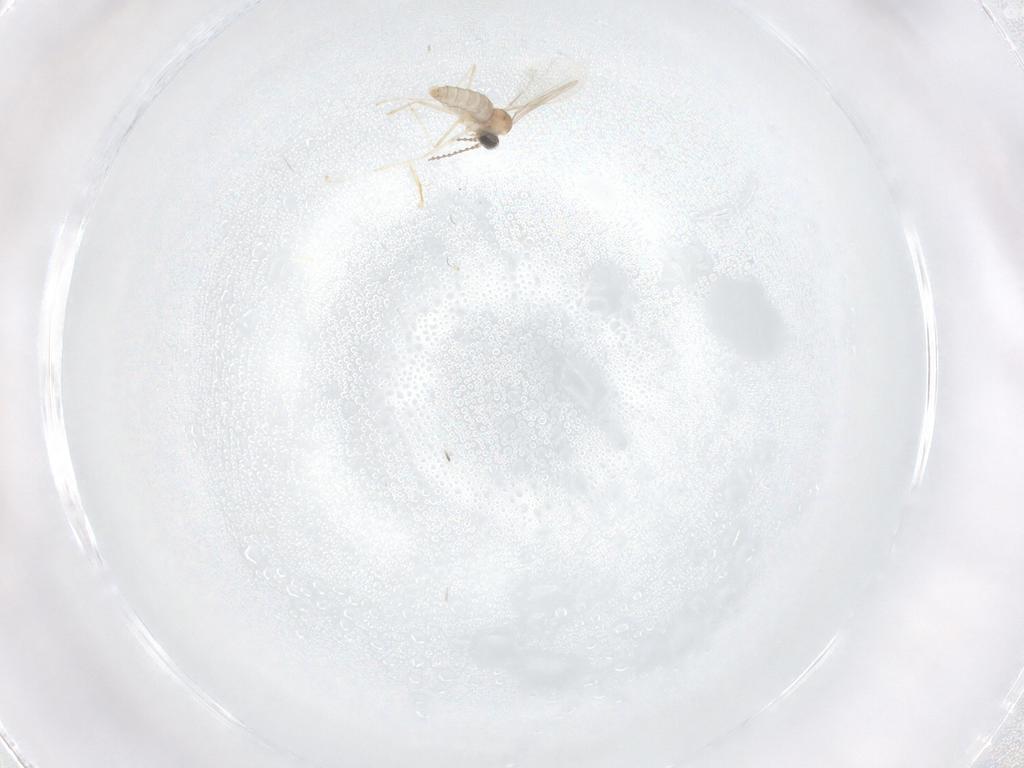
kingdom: Animalia
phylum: Arthropoda
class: Insecta
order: Diptera
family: Cecidomyiidae
